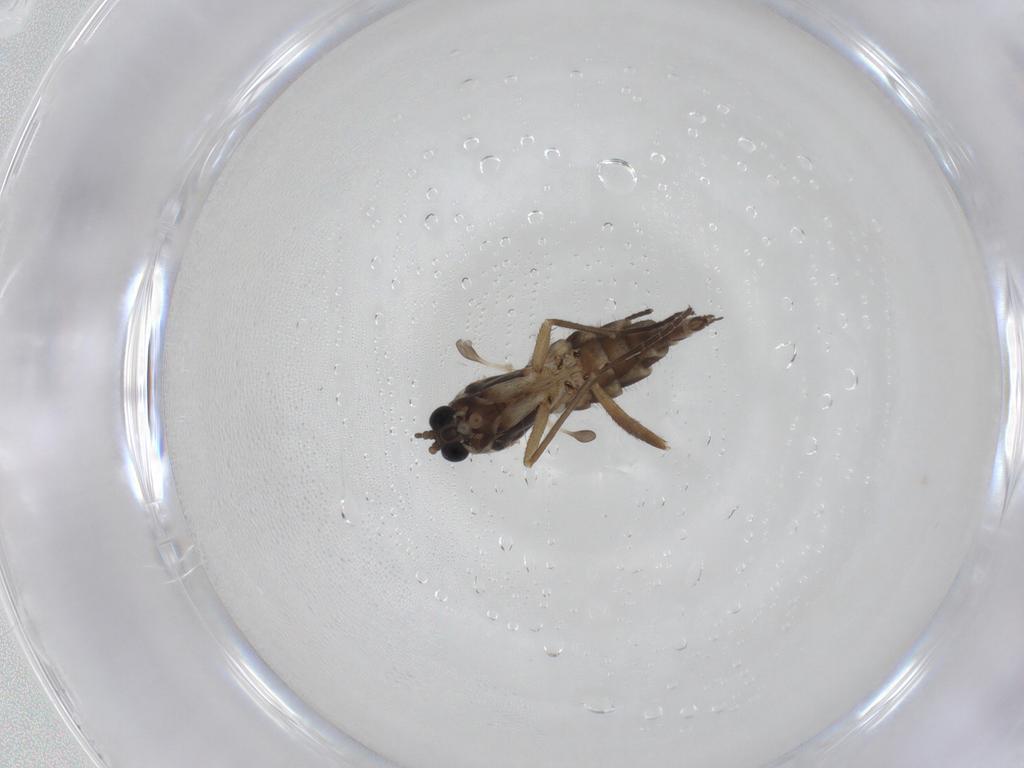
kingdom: Animalia
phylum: Arthropoda
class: Insecta
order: Diptera
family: Sciaridae
